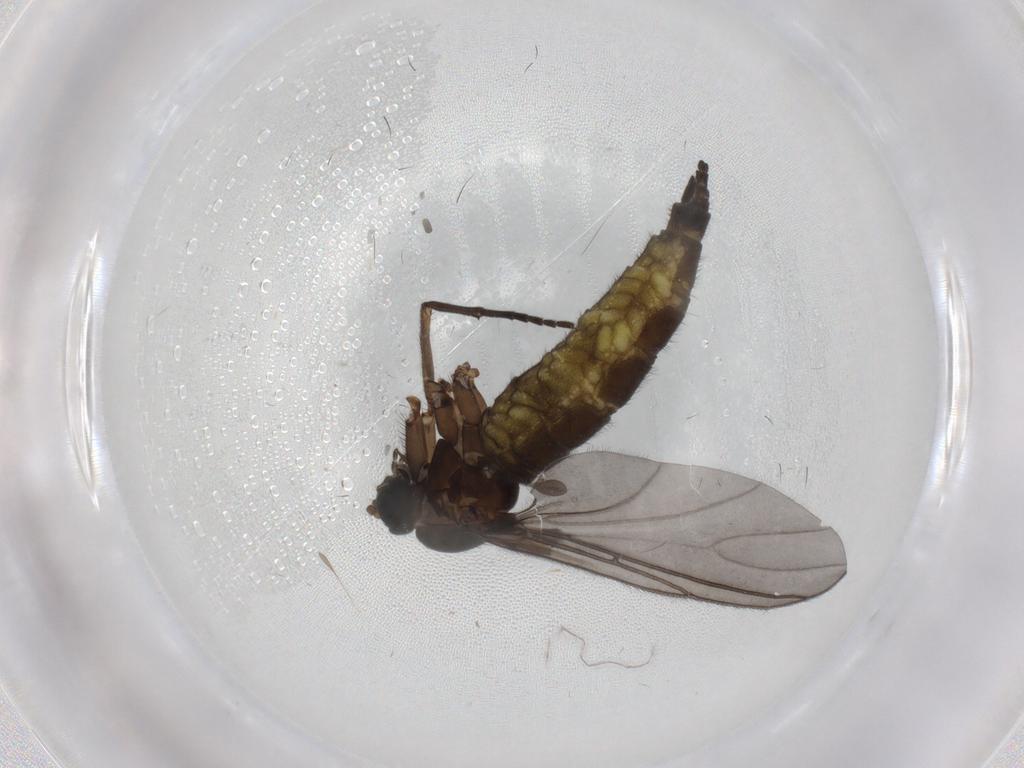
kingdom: Animalia
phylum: Arthropoda
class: Insecta
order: Diptera
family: Sciaridae
